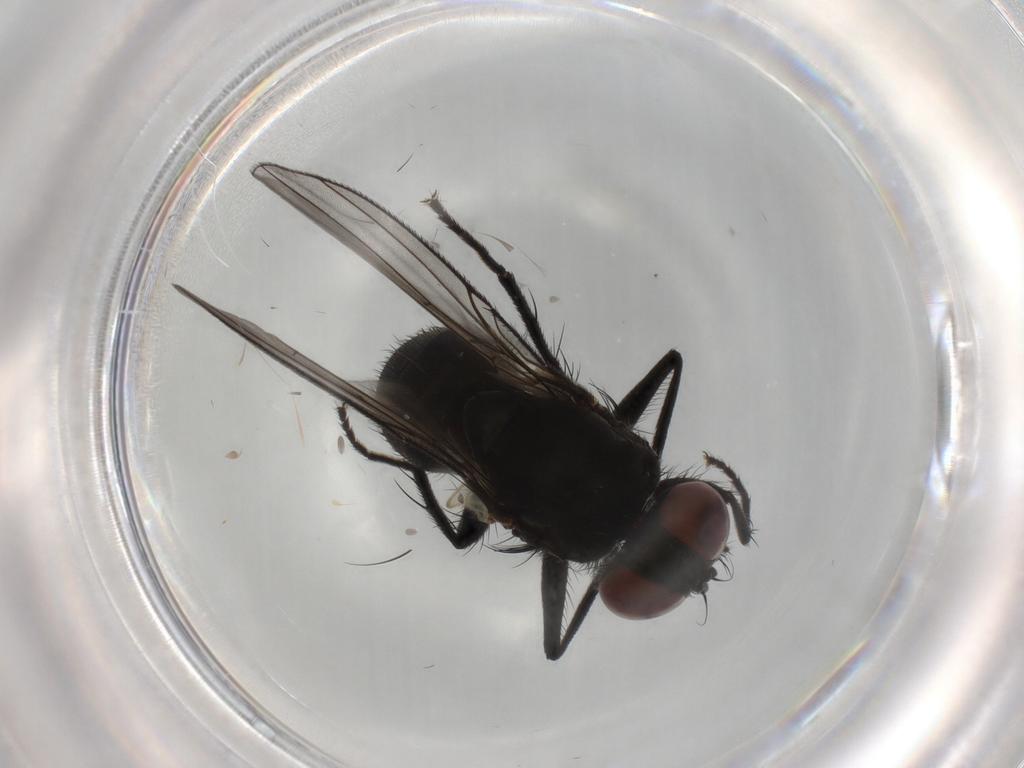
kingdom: Animalia
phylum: Arthropoda
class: Insecta
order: Diptera
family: Muscidae
